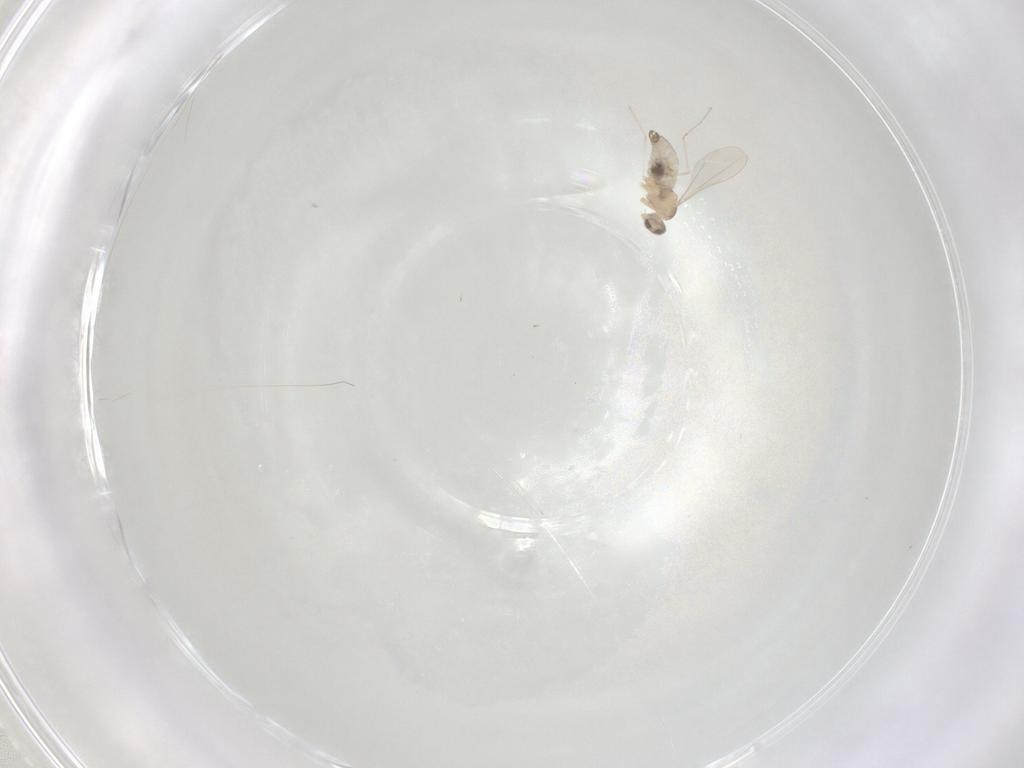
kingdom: Animalia
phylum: Arthropoda
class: Insecta
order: Diptera
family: Cecidomyiidae
